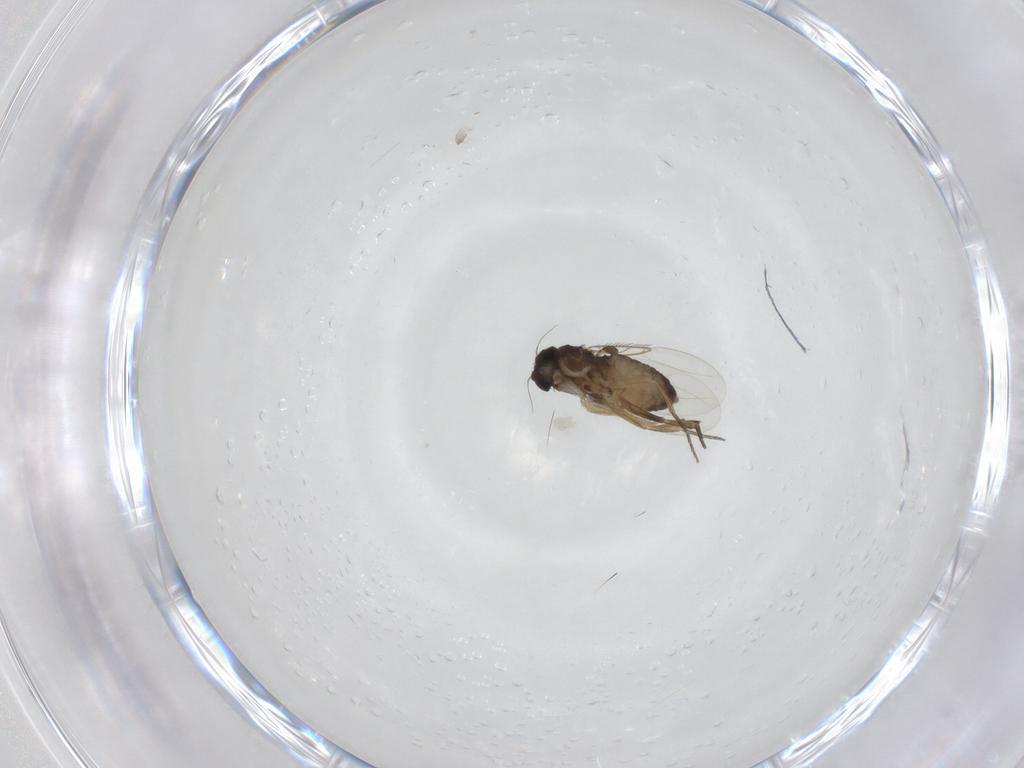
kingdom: Animalia
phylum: Arthropoda
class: Insecta
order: Diptera
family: Phoridae
